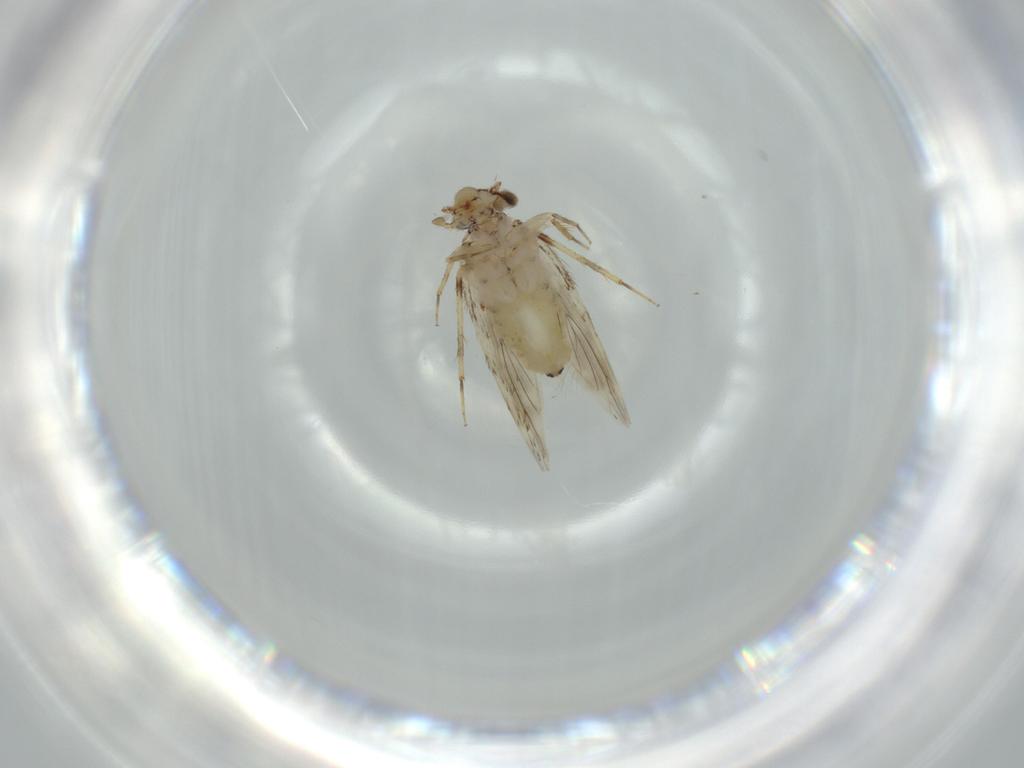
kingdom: Animalia
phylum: Arthropoda
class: Insecta
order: Psocodea
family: Lepidopsocidae
